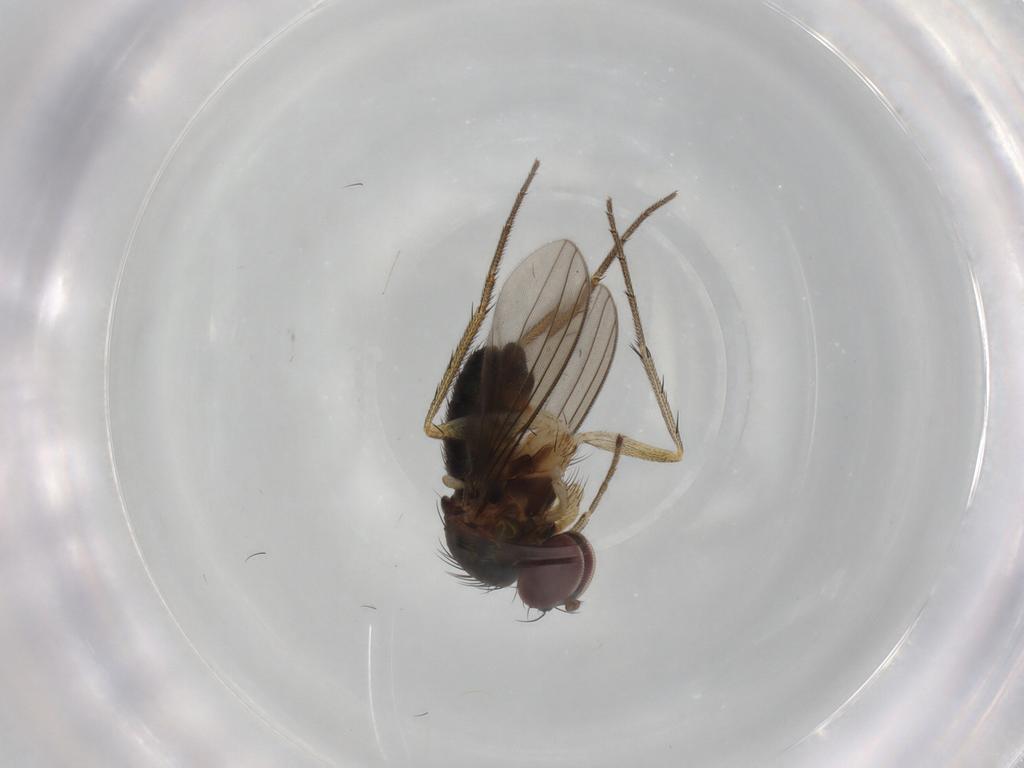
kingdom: Animalia
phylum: Arthropoda
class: Insecta
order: Diptera
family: Dolichopodidae
